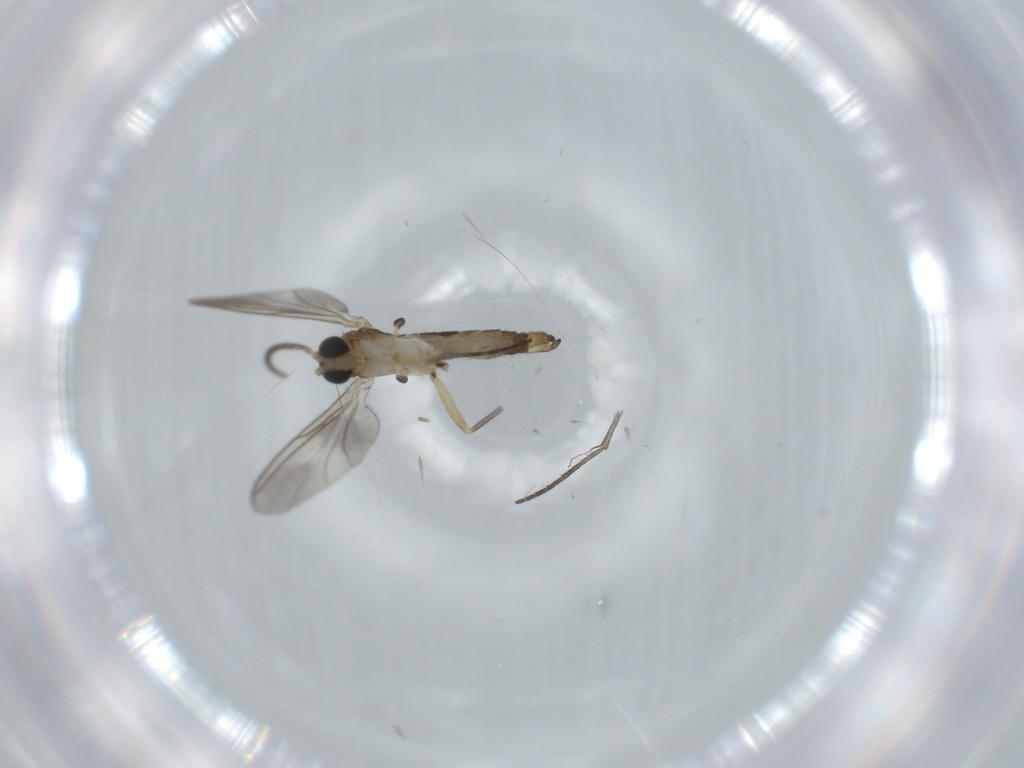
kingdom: Animalia
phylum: Arthropoda
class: Insecta
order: Diptera
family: Sciaridae
